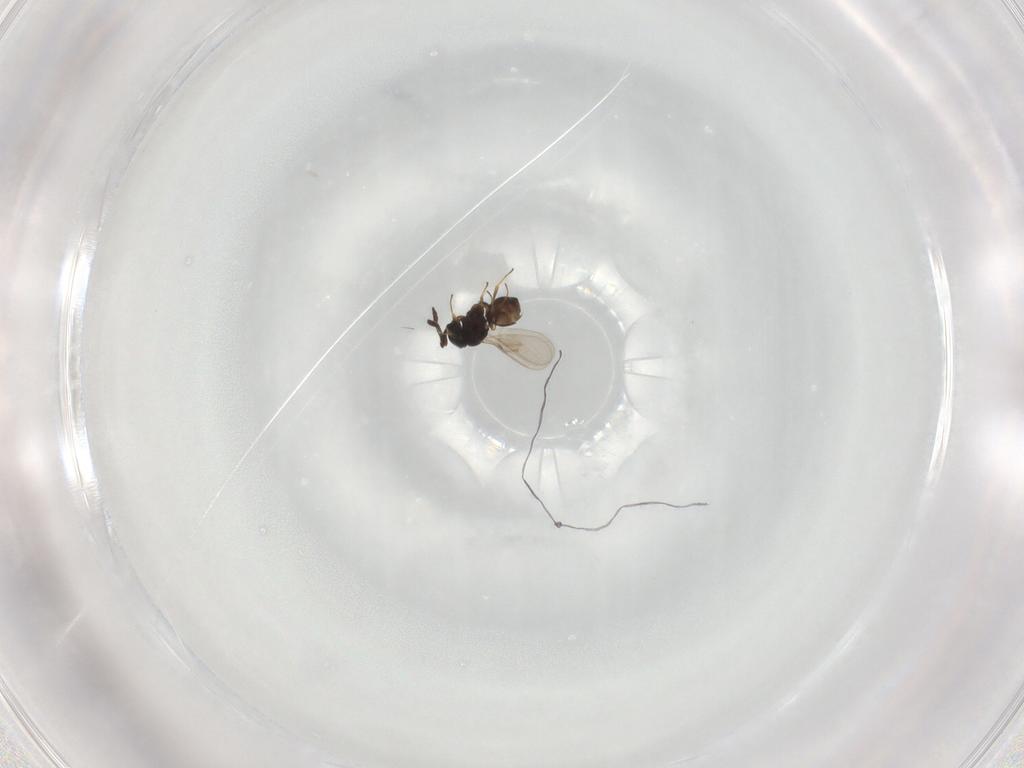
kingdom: Animalia
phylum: Arthropoda
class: Insecta
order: Hymenoptera
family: Scelionidae
